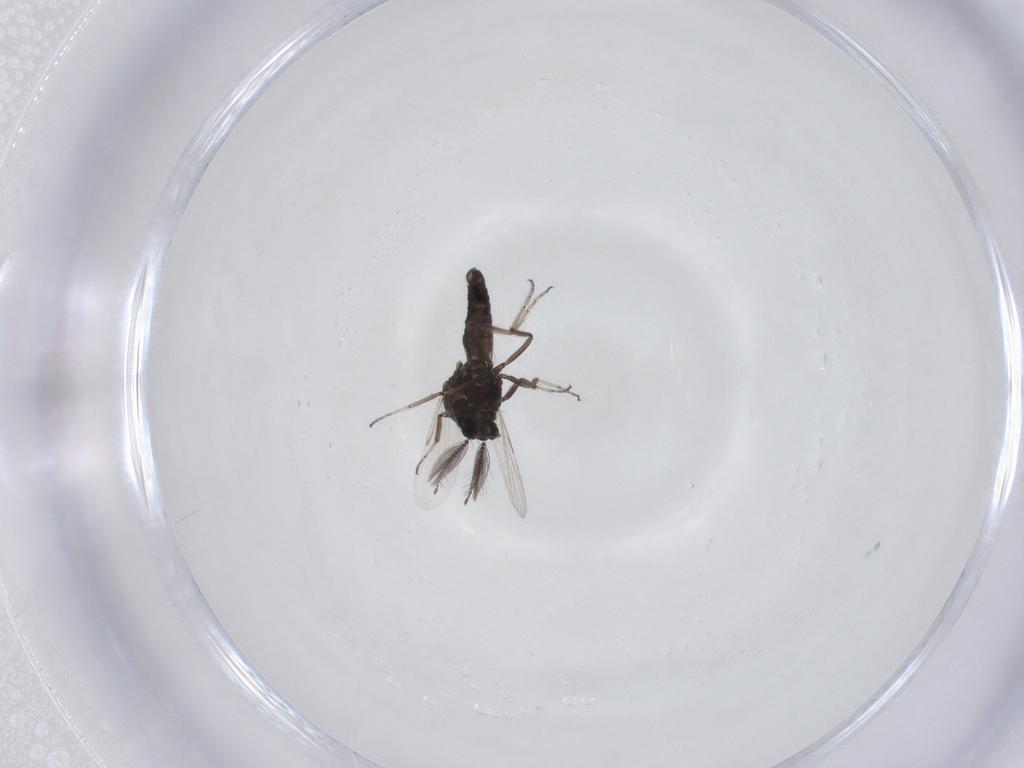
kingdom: Animalia
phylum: Arthropoda
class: Insecta
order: Diptera
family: Ceratopogonidae
